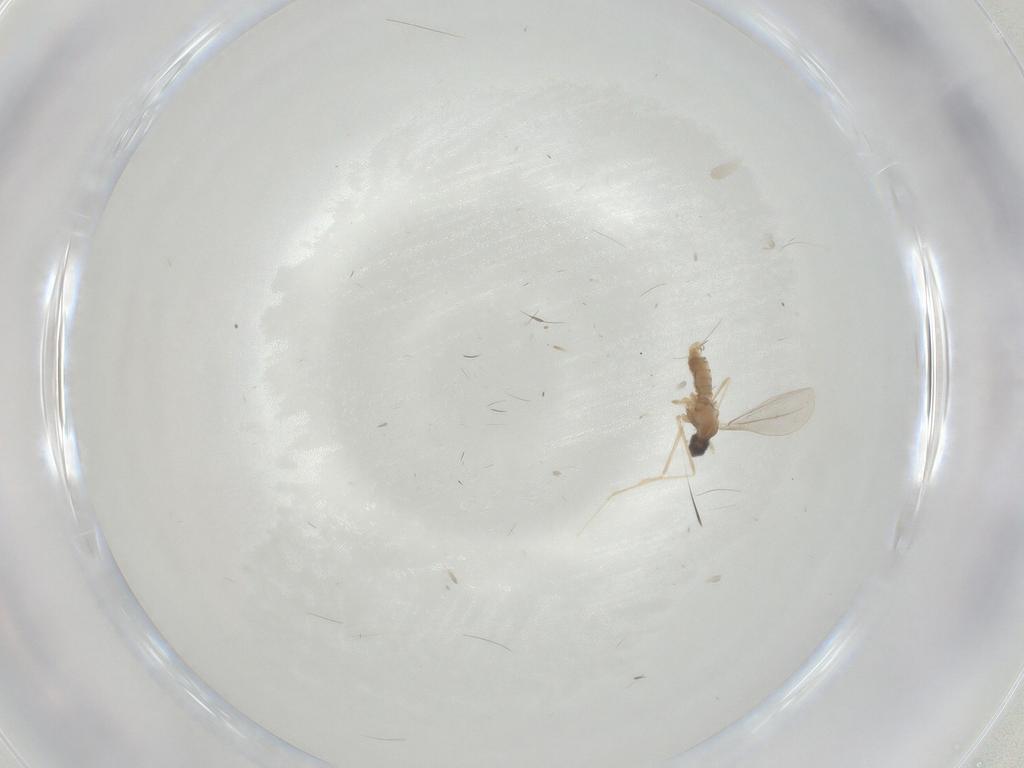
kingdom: Animalia
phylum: Arthropoda
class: Insecta
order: Diptera
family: Cecidomyiidae
